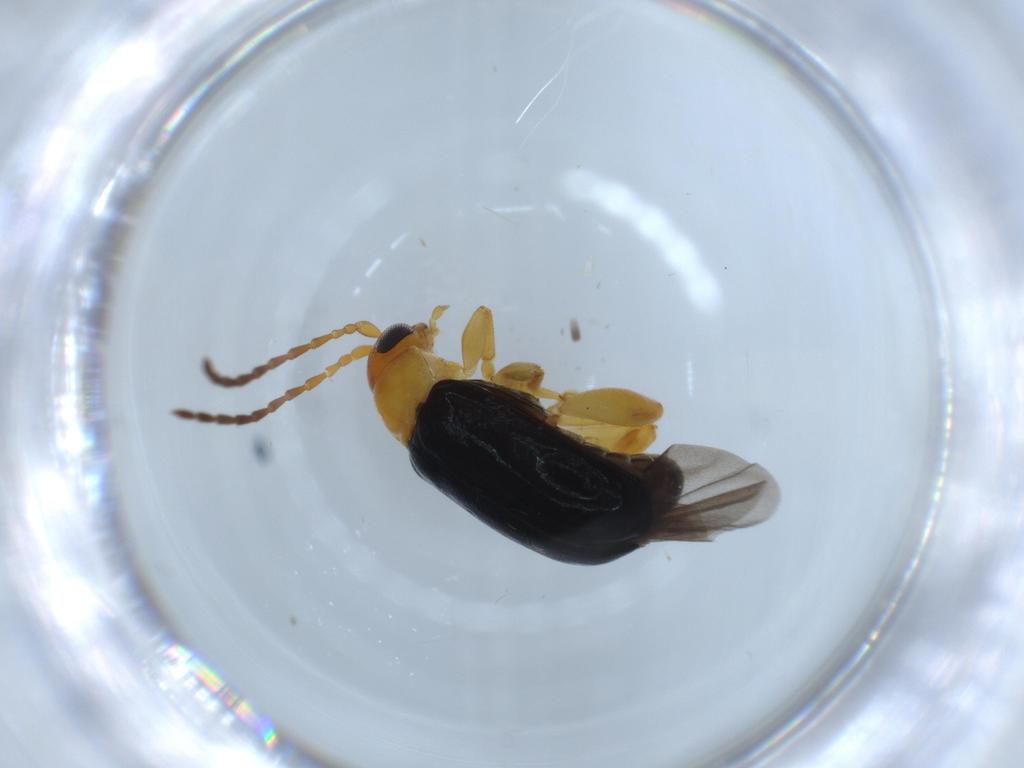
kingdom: Animalia
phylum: Arthropoda
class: Insecta
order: Coleoptera
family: Chrysomelidae
